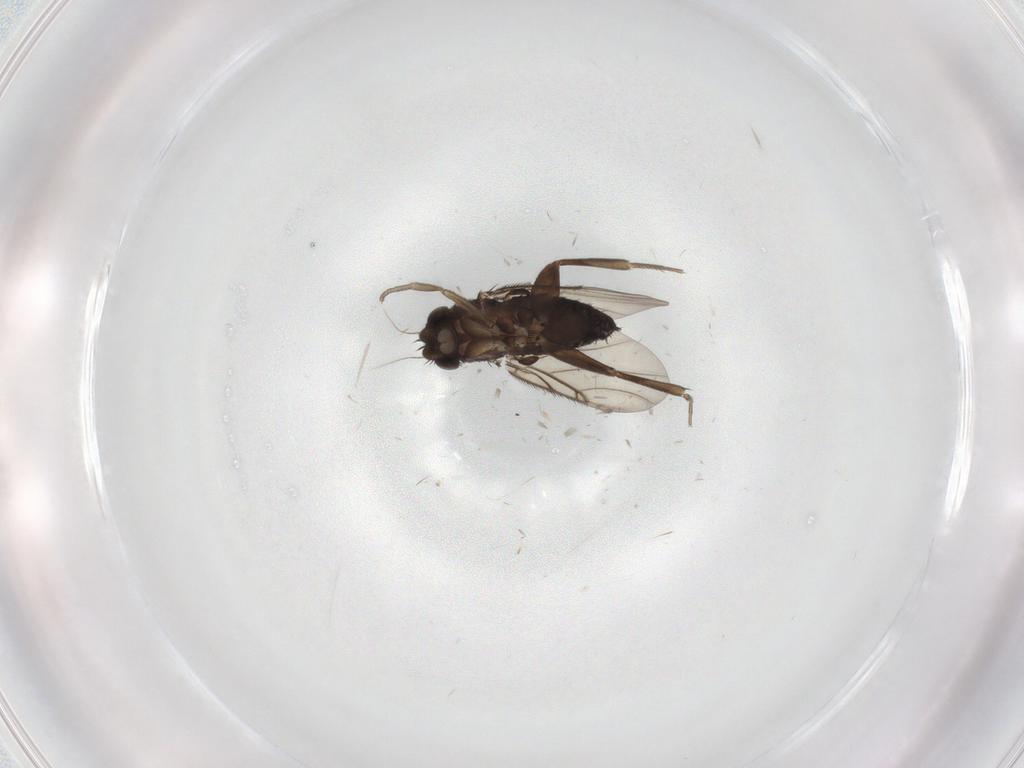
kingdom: Animalia
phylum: Arthropoda
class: Insecta
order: Diptera
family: Phoridae
